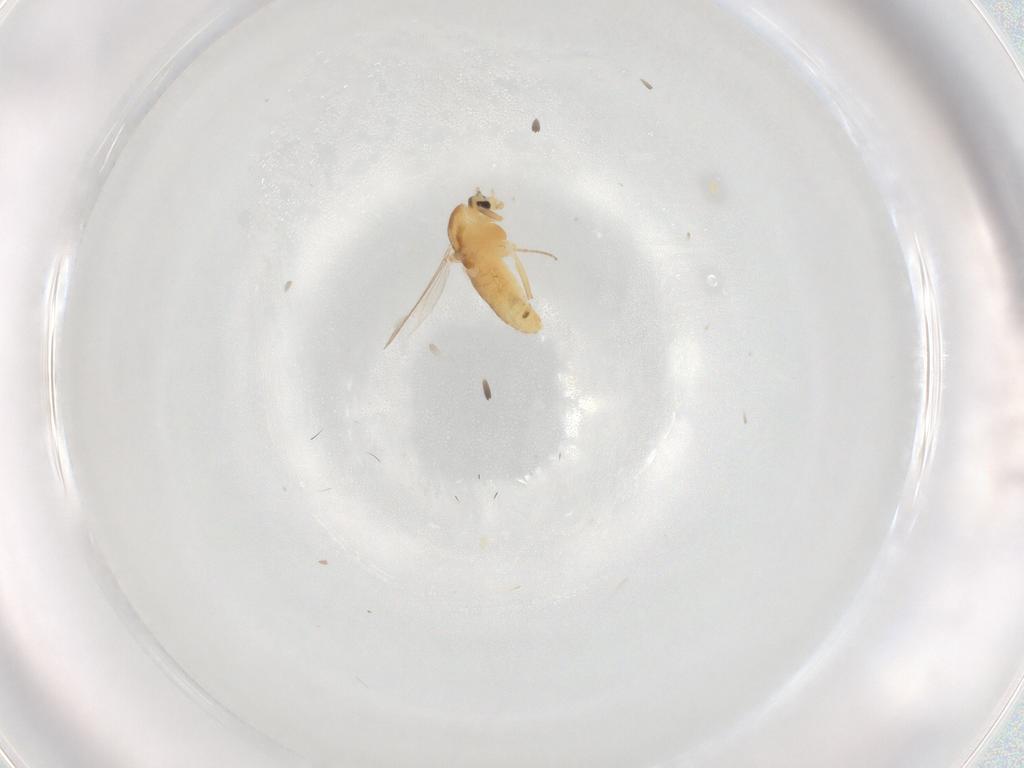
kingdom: Animalia
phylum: Arthropoda
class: Insecta
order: Diptera
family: Chironomidae
